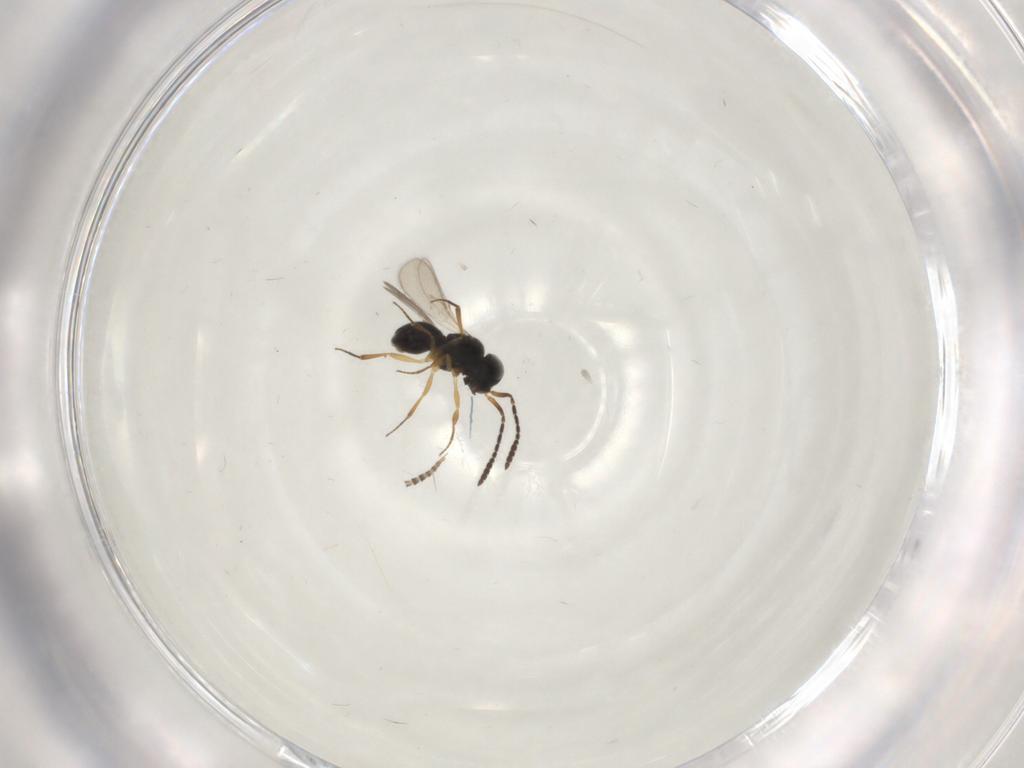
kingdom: Animalia
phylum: Arthropoda
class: Insecta
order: Hymenoptera
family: Scelionidae
